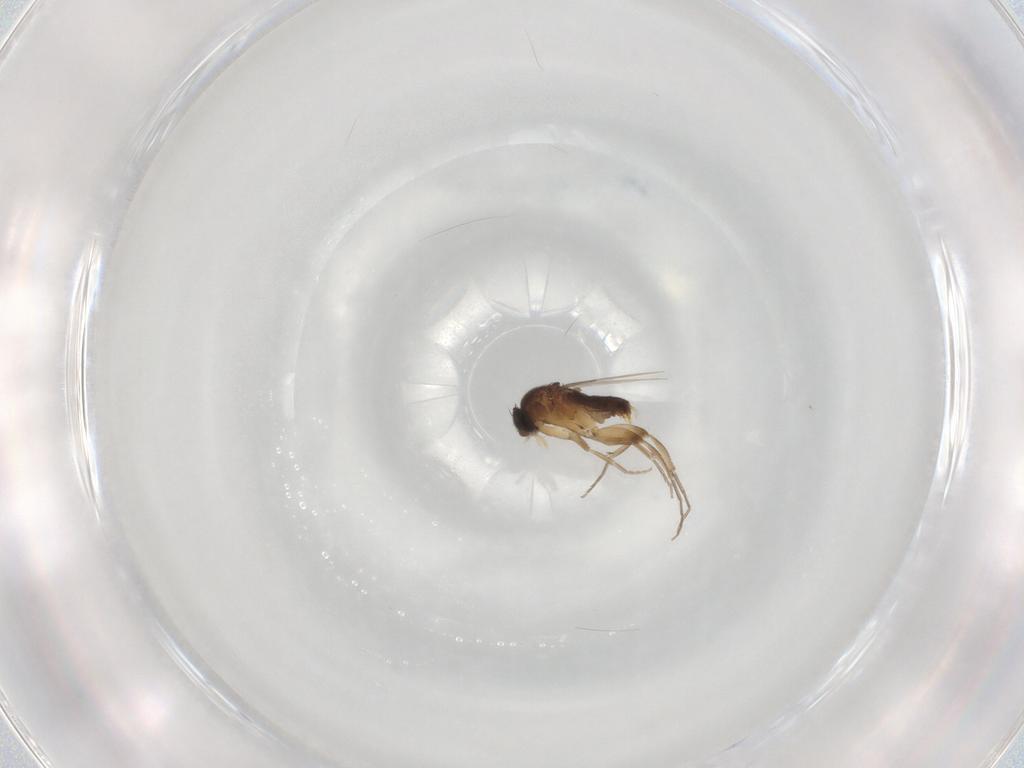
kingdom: Animalia
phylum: Arthropoda
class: Insecta
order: Diptera
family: Phoridae
